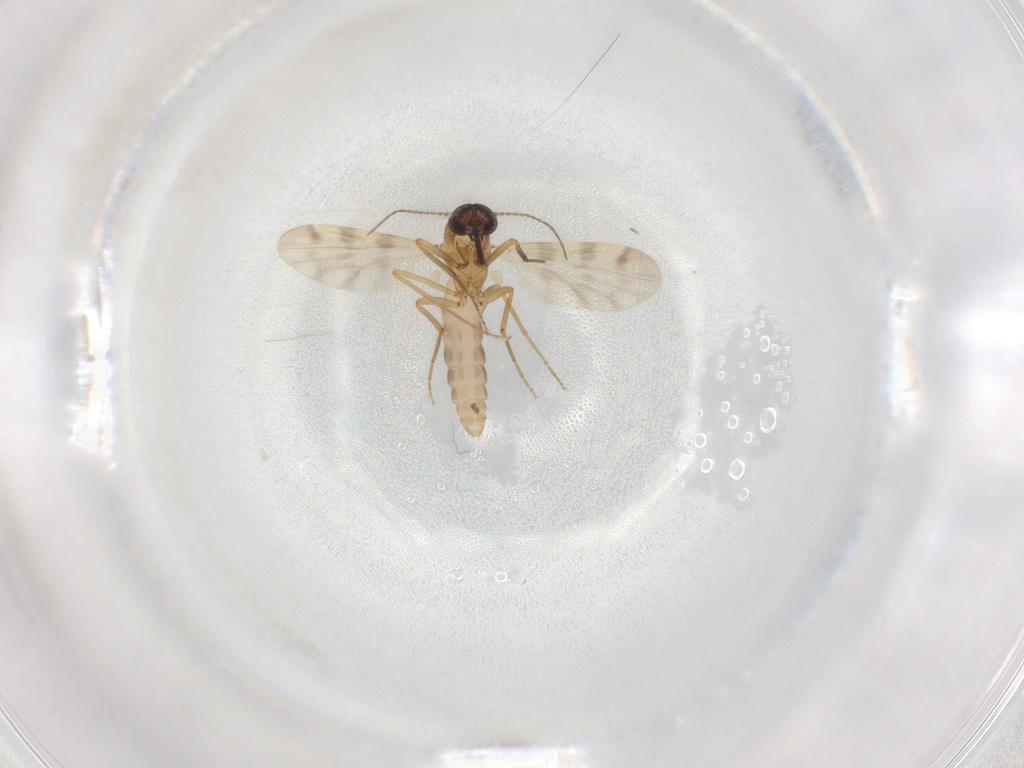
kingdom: Animalia
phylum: Arthropoda
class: Insecta
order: Diptera
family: Ceratopogonidae
